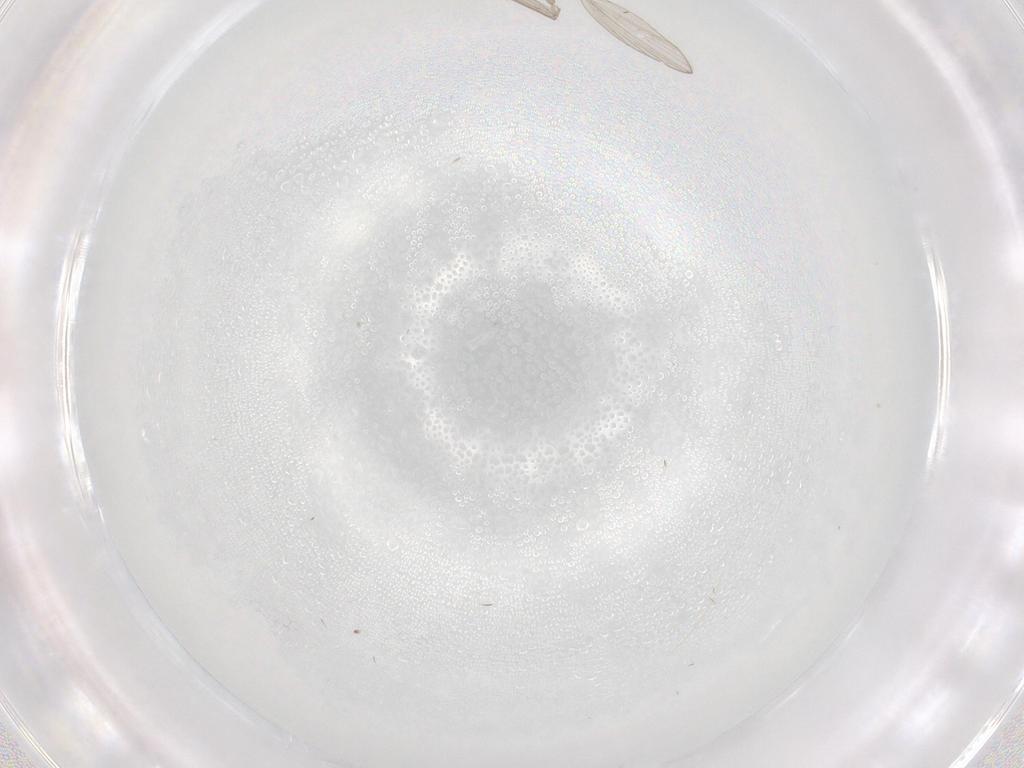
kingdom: Animalia
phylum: Arthropoda
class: Insecta
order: Diptera
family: Psychodidae
